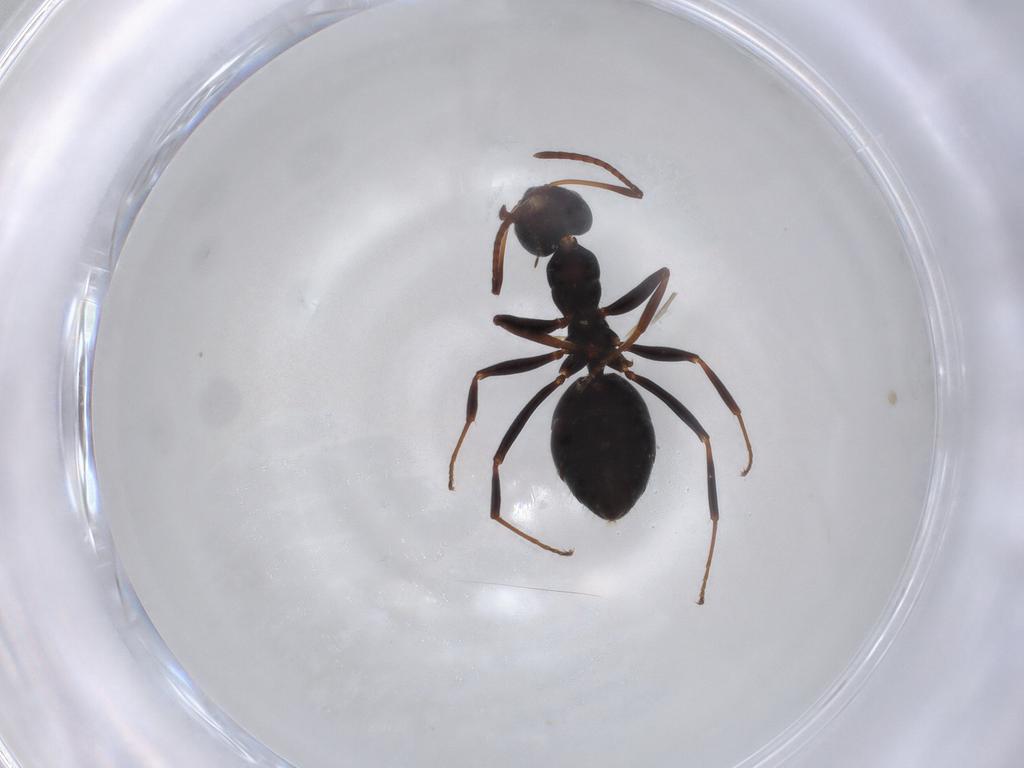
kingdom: Animalia
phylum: Arthropoda
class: Insecta
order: Hymenoptera
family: Formicidae
